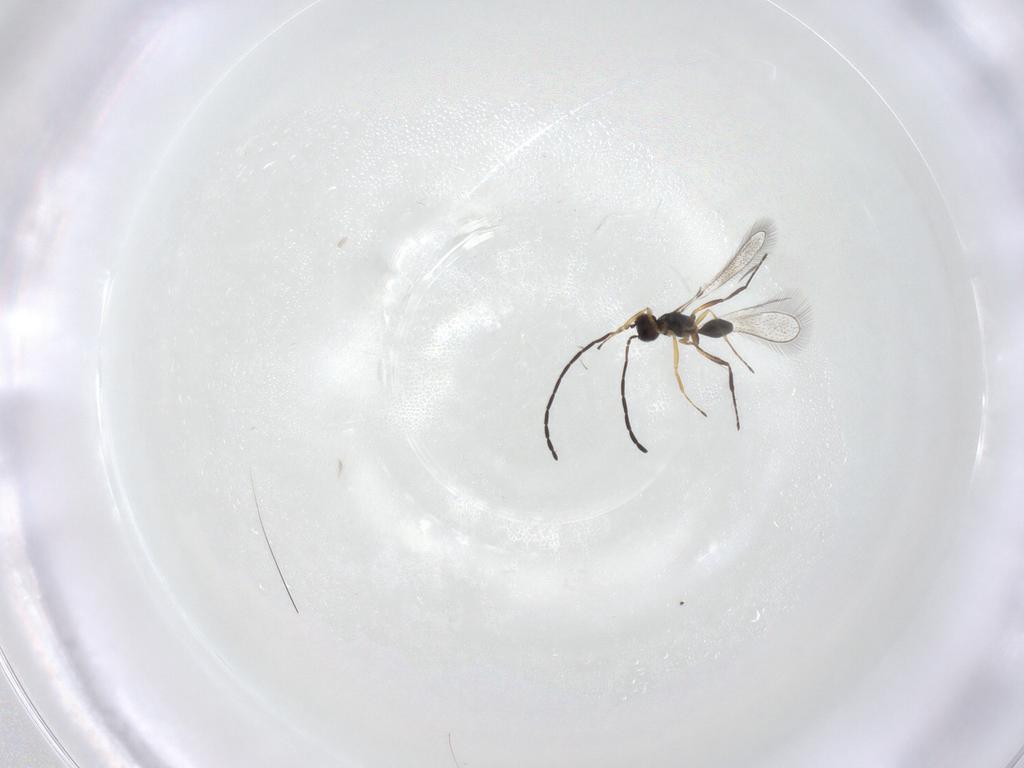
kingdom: Animalia
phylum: Arthropoda
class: Insecta
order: Hymenoptera
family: Mymaridae
